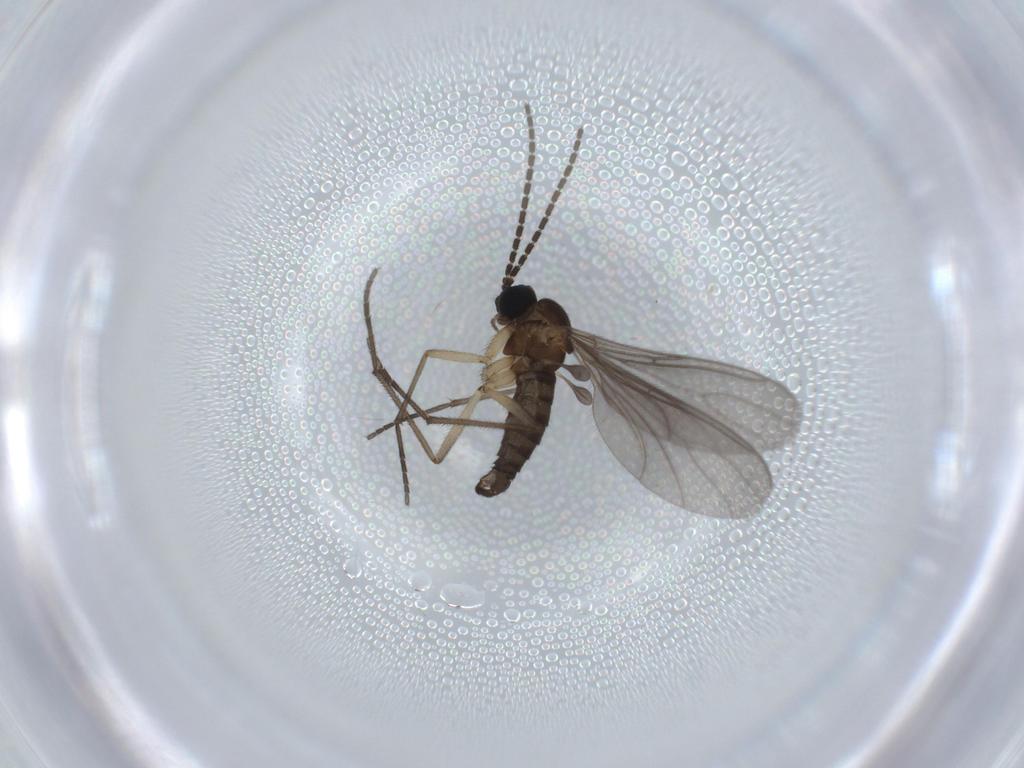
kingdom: Animalia
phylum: Arthropoda
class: Insecta
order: Diptera
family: Sciaridae
